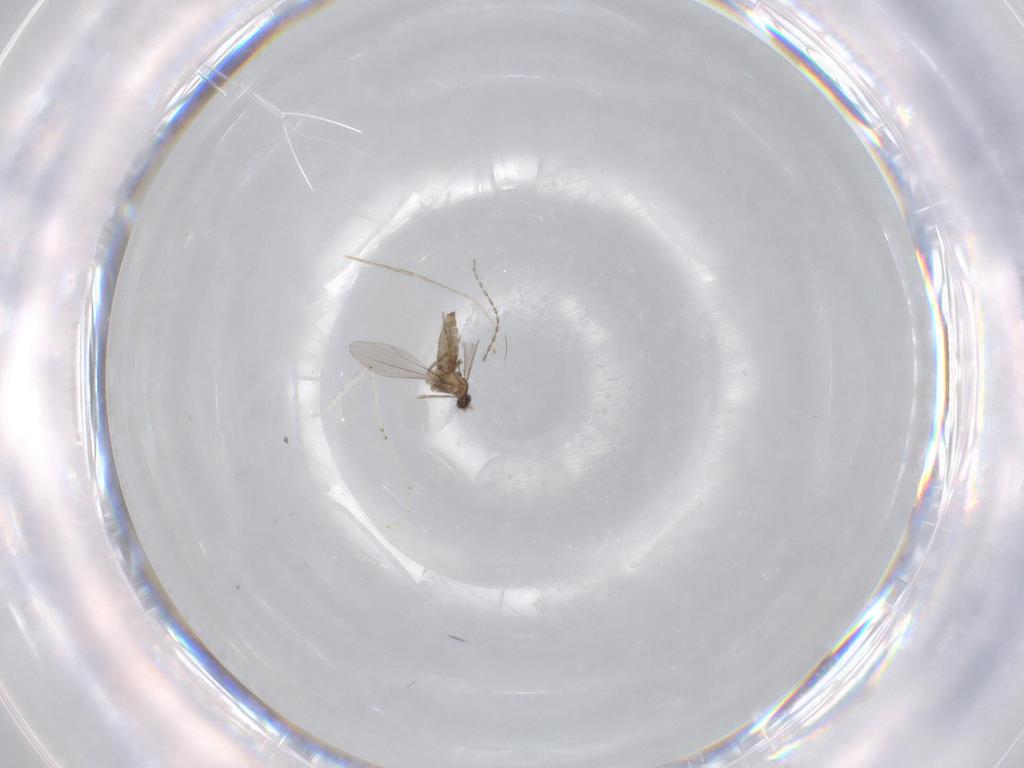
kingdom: Animalia
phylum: Arthropoda
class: Insecta
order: Diptera
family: Cecidomyiidae
